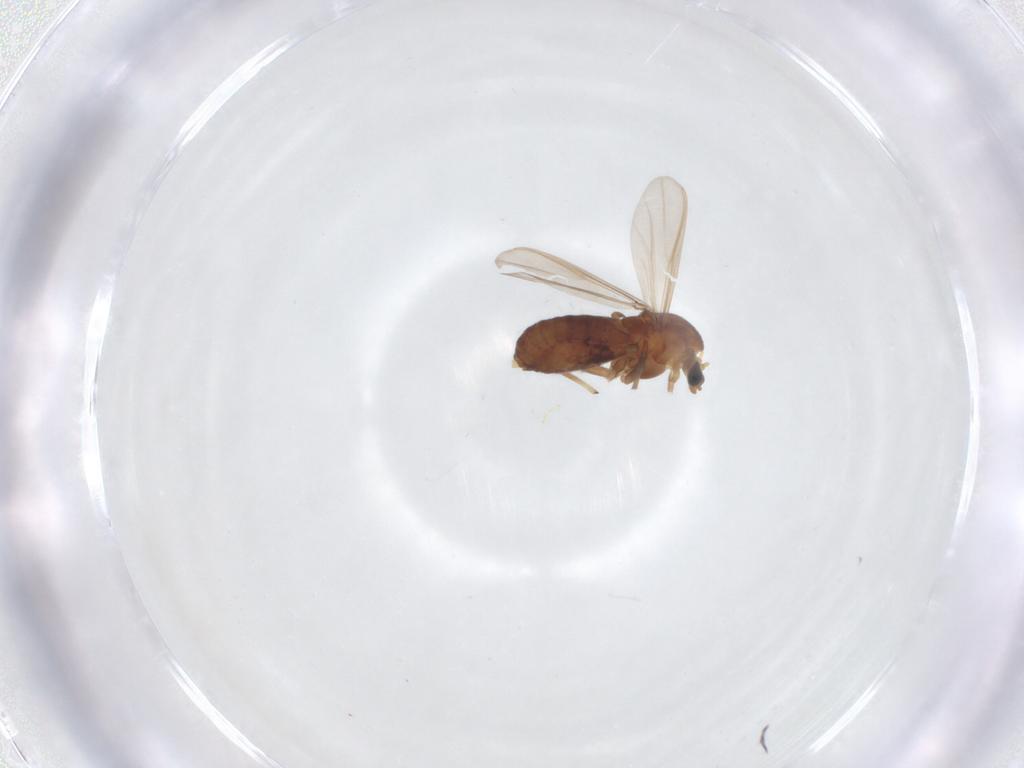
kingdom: Animalia
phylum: Arthropoda
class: Insecta
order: Diptera
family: Chironomidae
